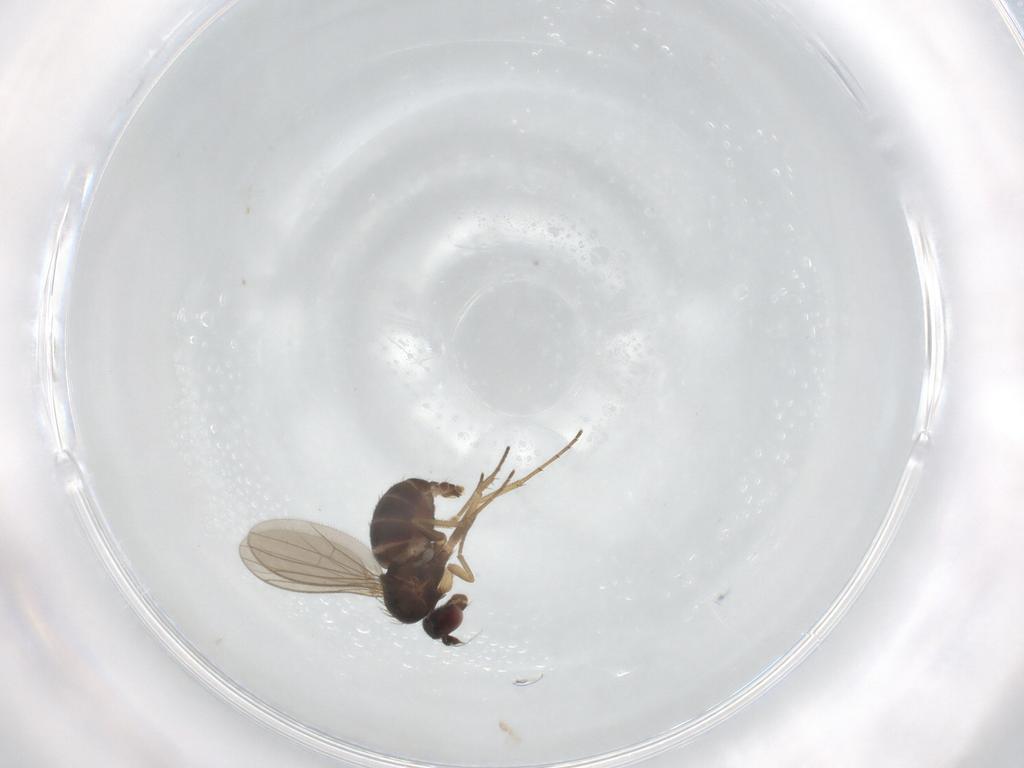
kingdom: Animalia
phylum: Arthropoda
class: Insecta
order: Diptera
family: Dolichopodidae
